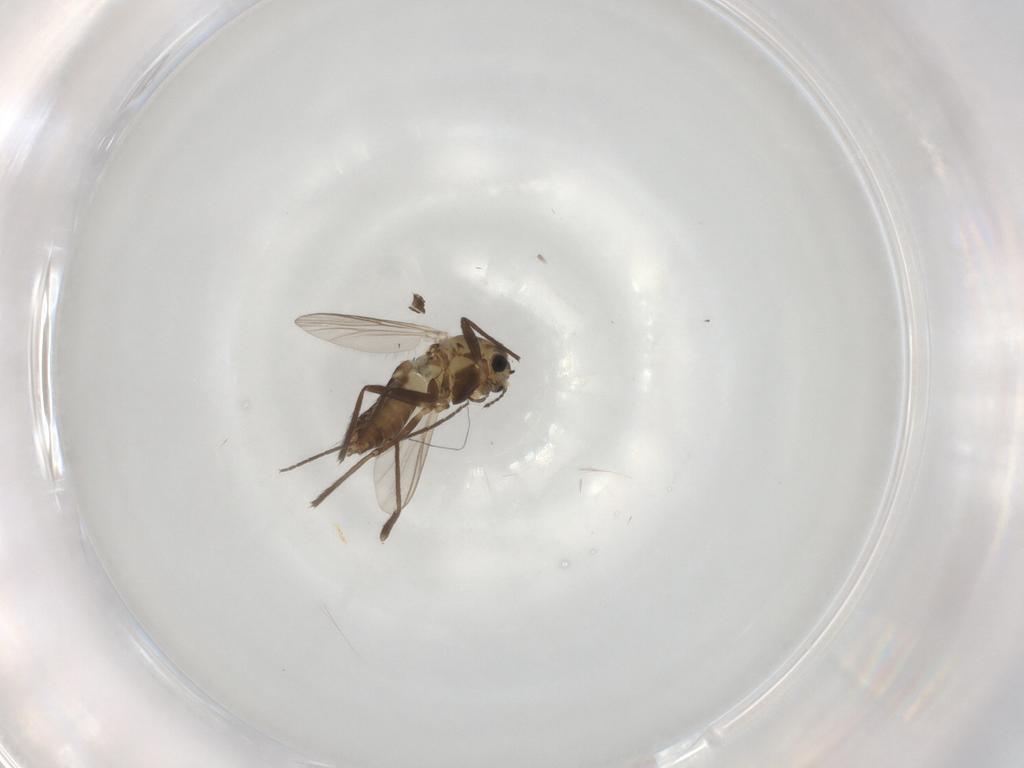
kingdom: Animalia
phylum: Arthropoda
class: Insecta
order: Diptera
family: Chironomidae
